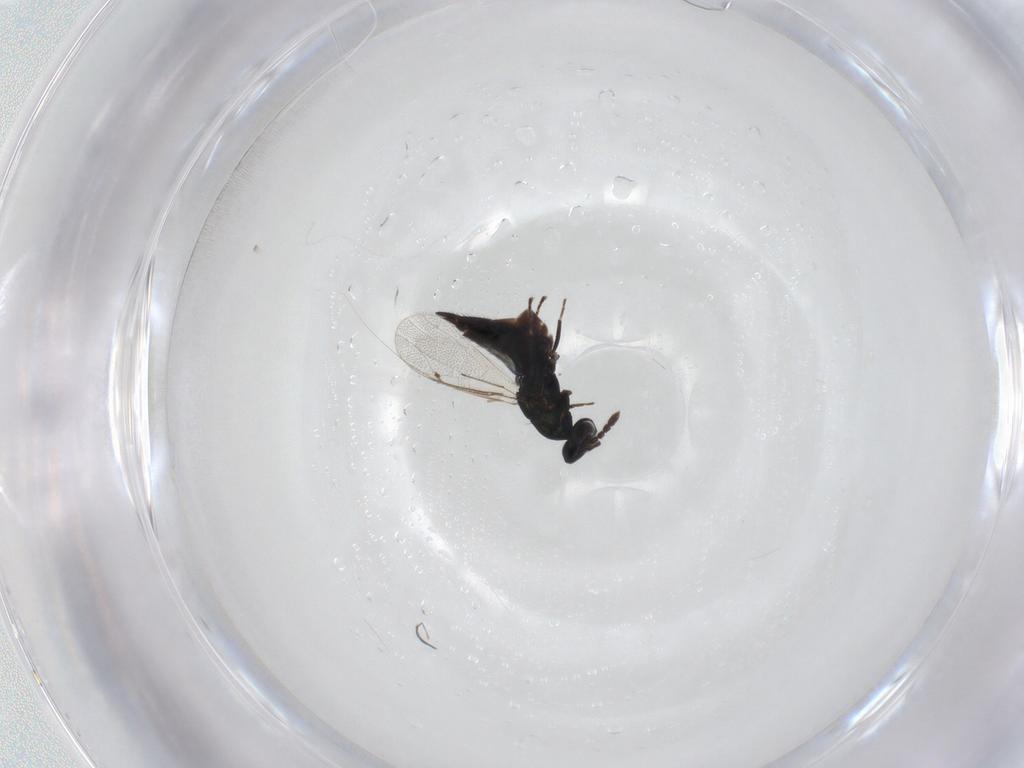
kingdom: Animalia
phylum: Arthropoda
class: Insecta
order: Hymenoptera
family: Eulophidae
